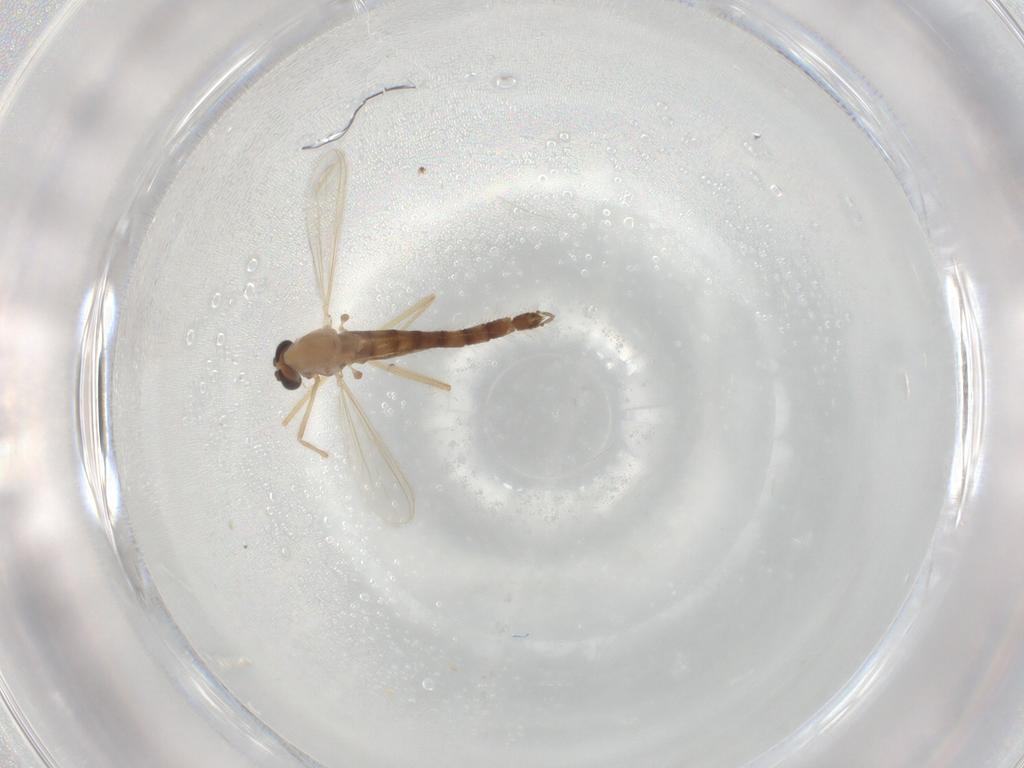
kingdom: Animalia
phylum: Arthropoda
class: Insecta
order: Diptera
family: Chironomidae
